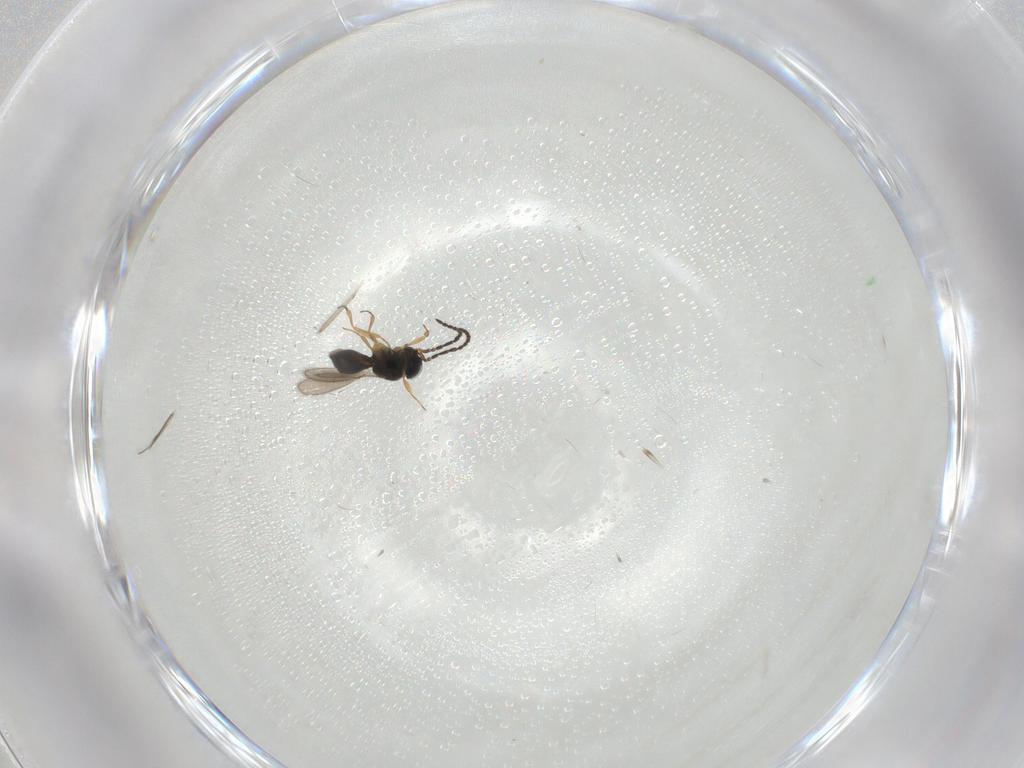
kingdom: Animalia
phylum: Arthropoda
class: Insecta
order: Hymenoptera
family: Scelionidae
